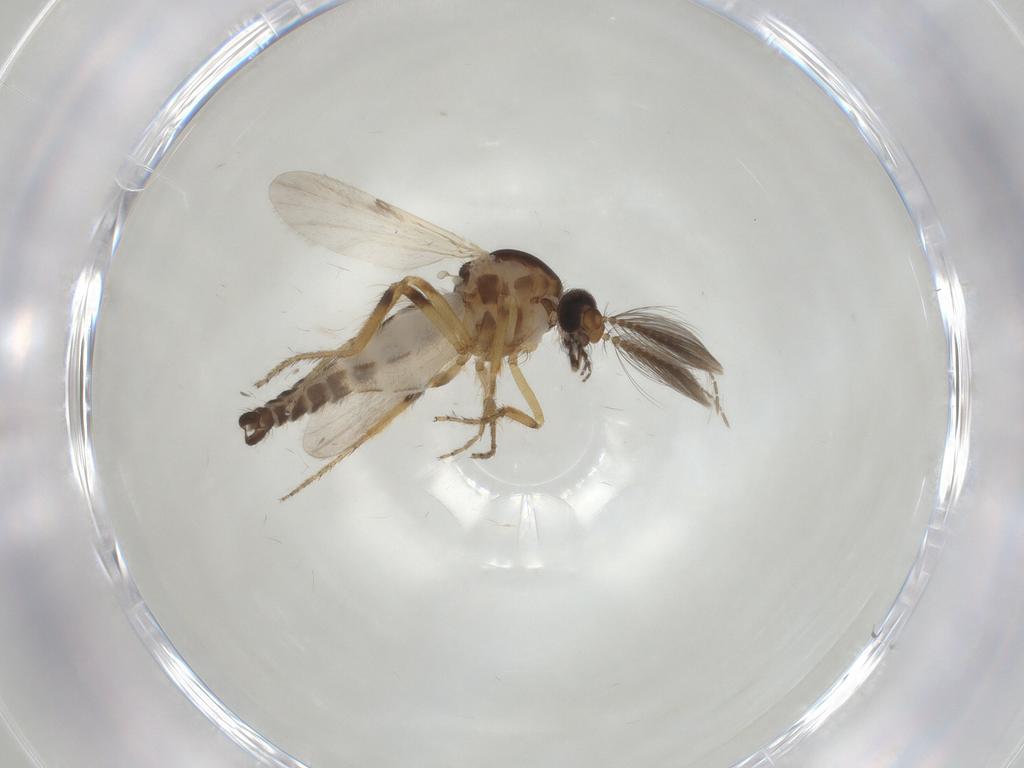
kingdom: Animalia
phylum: Arthropoda
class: Insecta
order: Diptera
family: Ceratopogonidae
